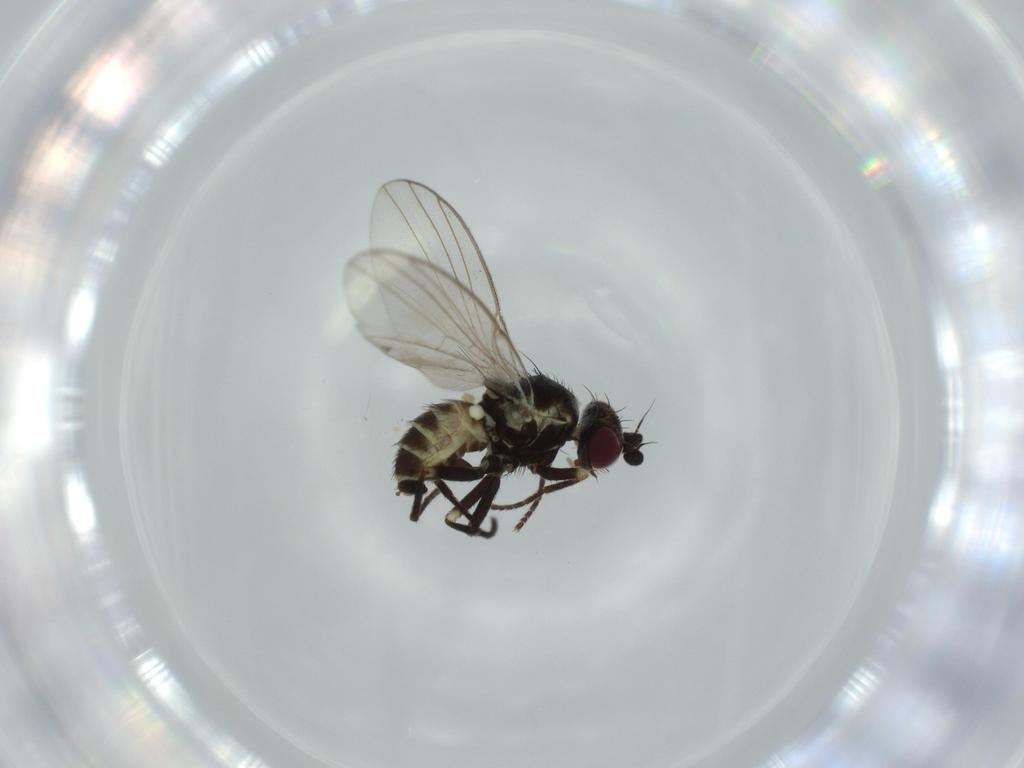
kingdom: Animalia
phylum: Arthropoda
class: Insecta
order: Diptera
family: Chironomidae
